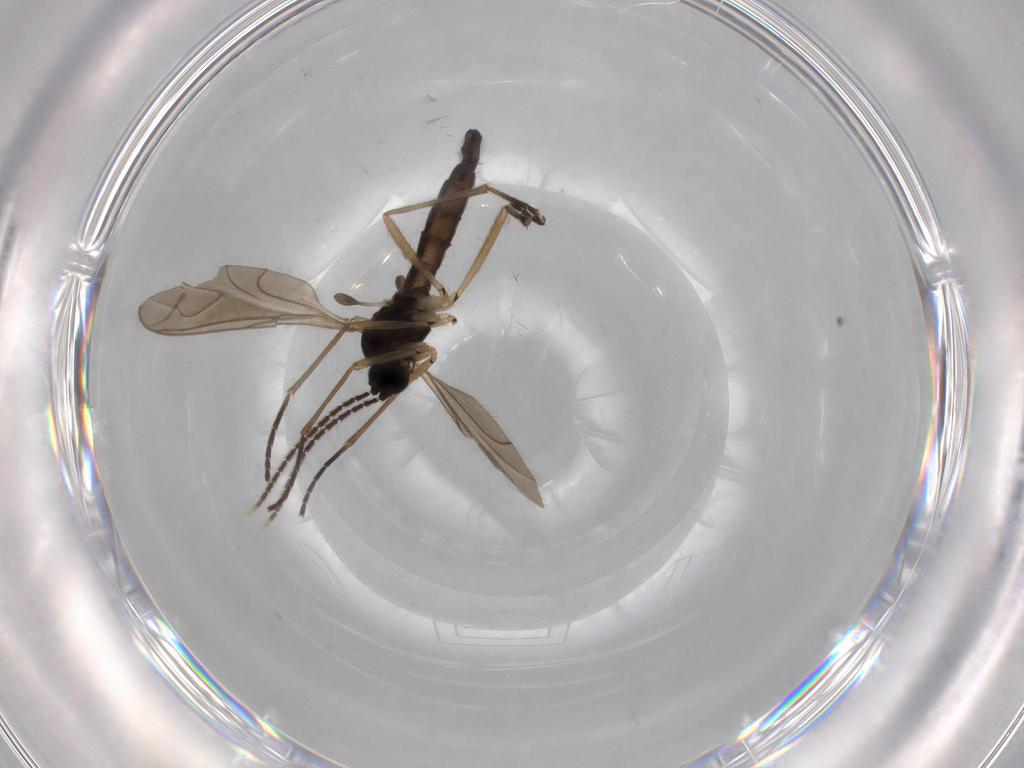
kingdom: Animalia
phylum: Arthropoda
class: Insecta
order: Diptera
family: Sciaridae
